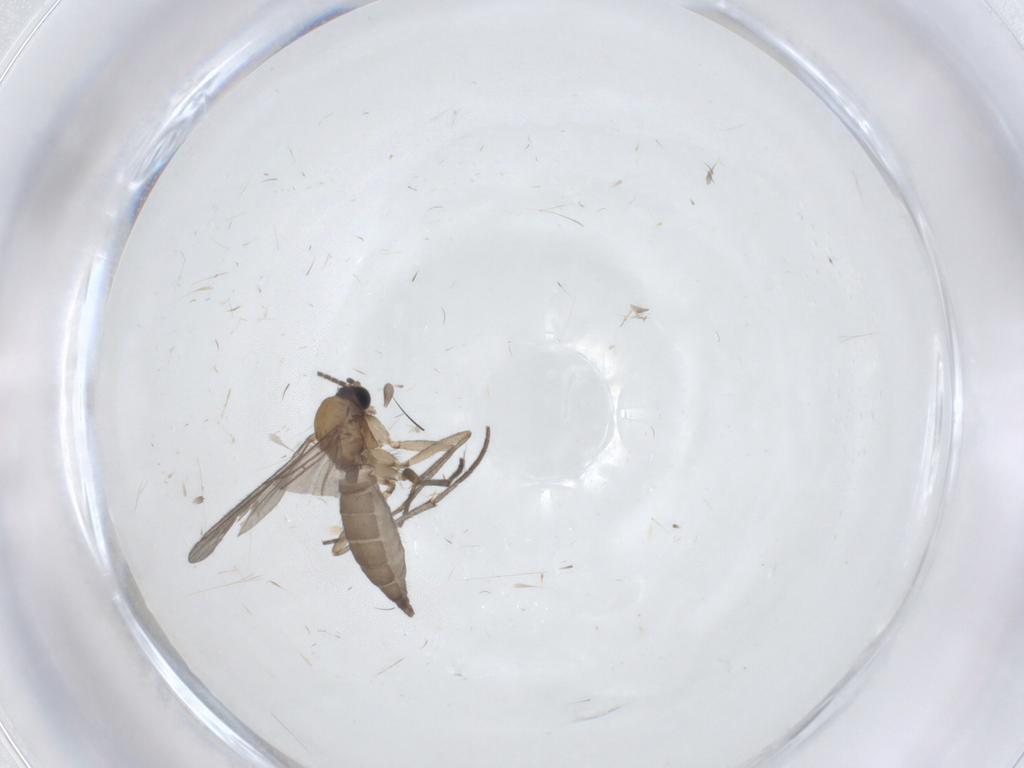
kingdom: Animalia
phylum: Arthropoda
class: Insecta
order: Diptera
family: Sciaridae
